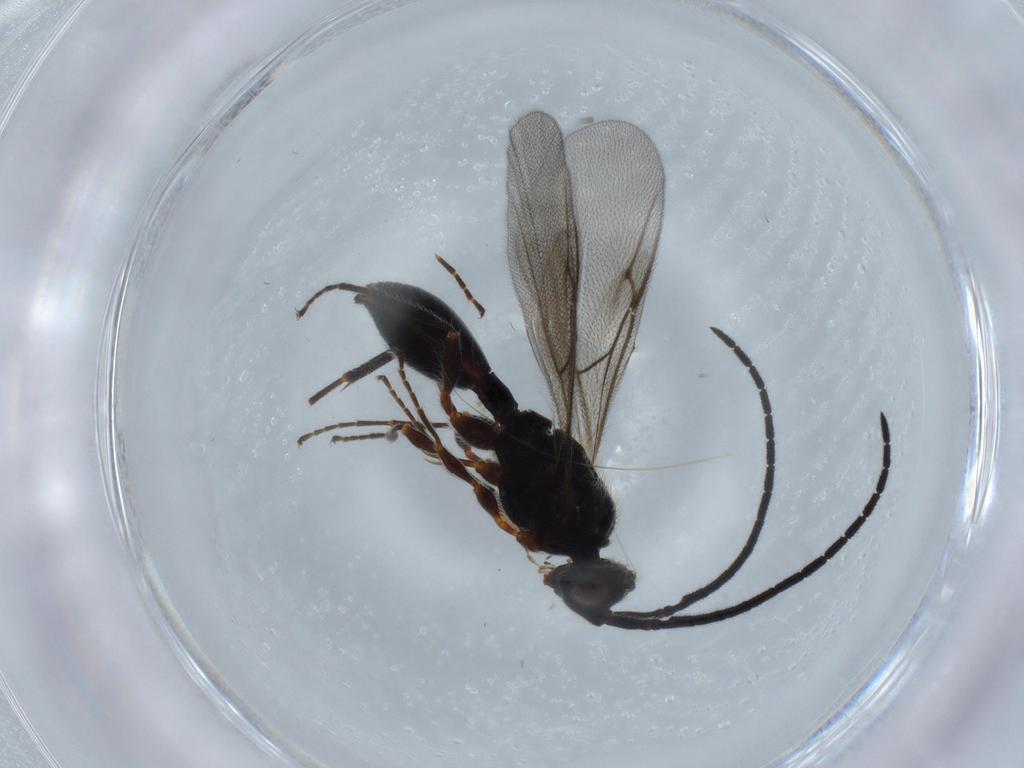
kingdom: Animalia
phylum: Arthropoda
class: Insecta
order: Hymenoptera
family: Diapriidae
